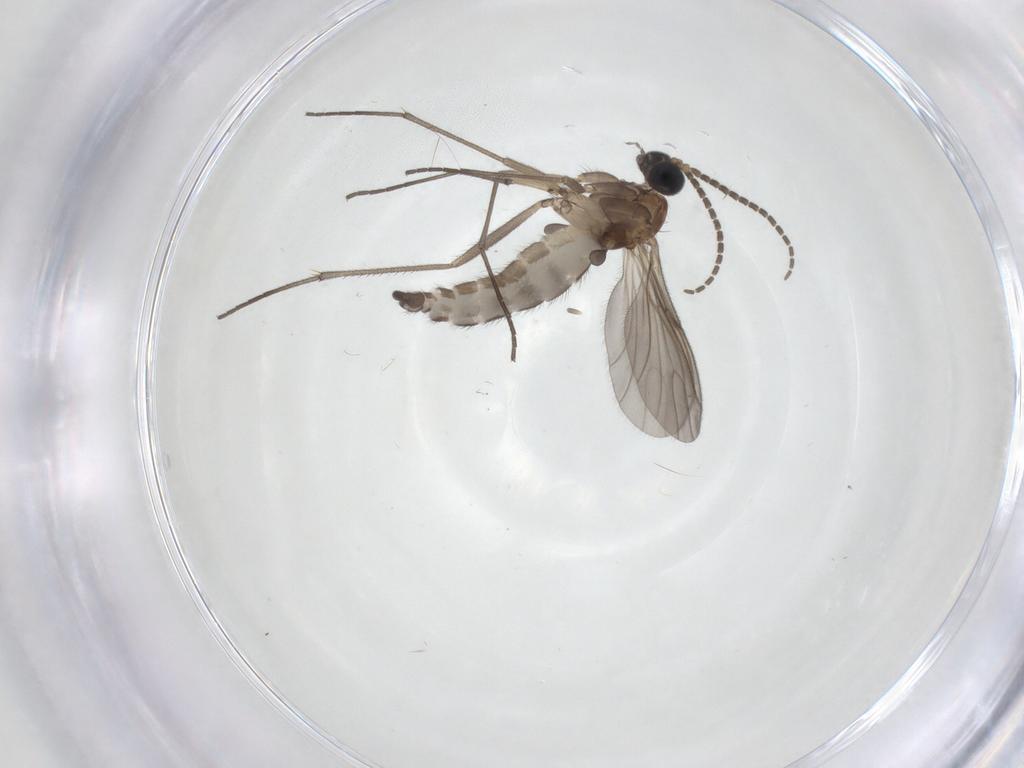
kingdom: Animalia
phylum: Arthropoda
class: Insecta
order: Diptera
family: Sciaridae
